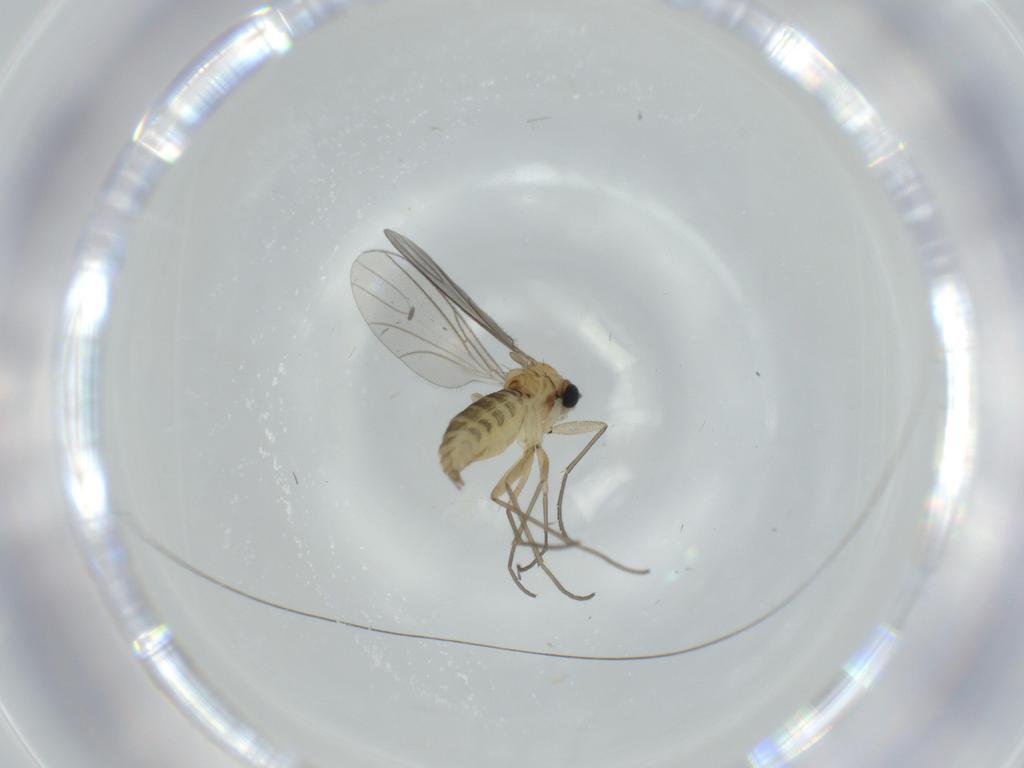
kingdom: Animalia
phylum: Arthropoda
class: Insecta
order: Diptera
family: Sciaridae
